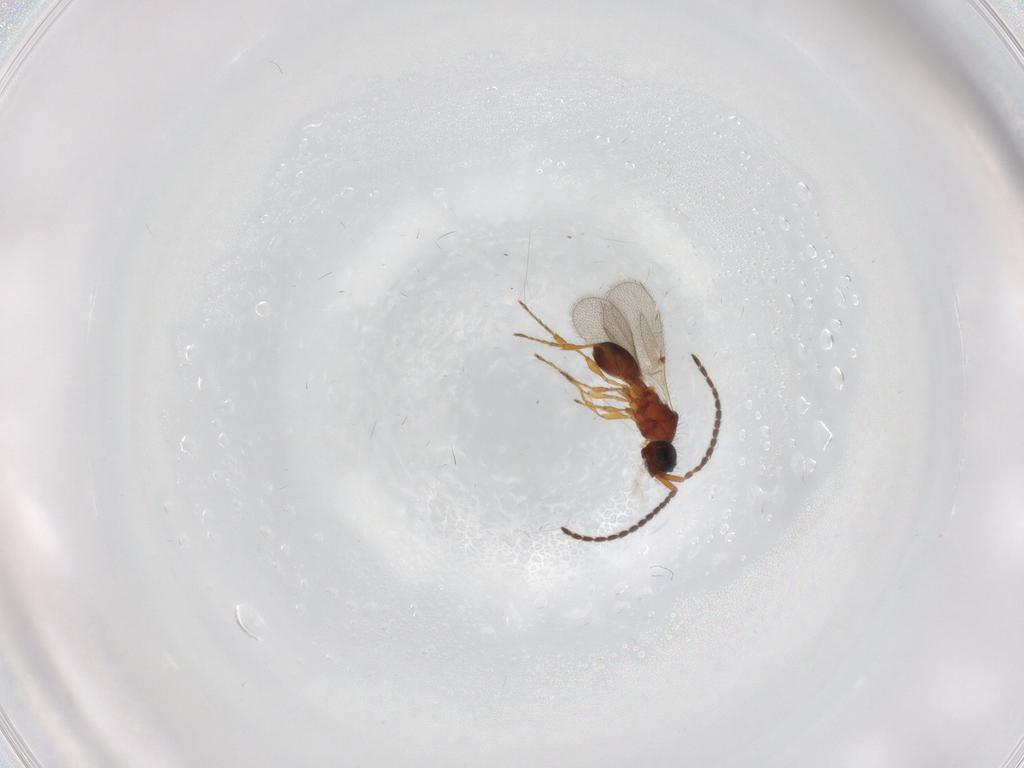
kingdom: Animalia
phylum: Arthropoda
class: Insecta
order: Hymenoptera
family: Diapriidae
